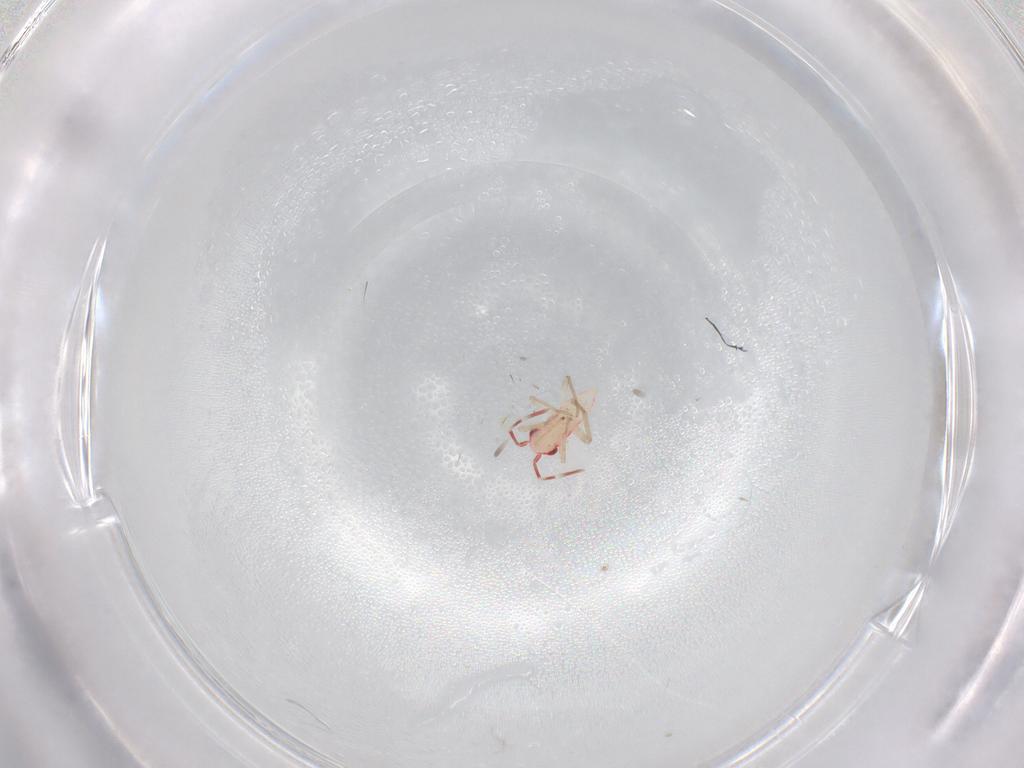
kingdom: Animalia
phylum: Arthropoda
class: Insecta
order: Hemiptera
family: Miridae
